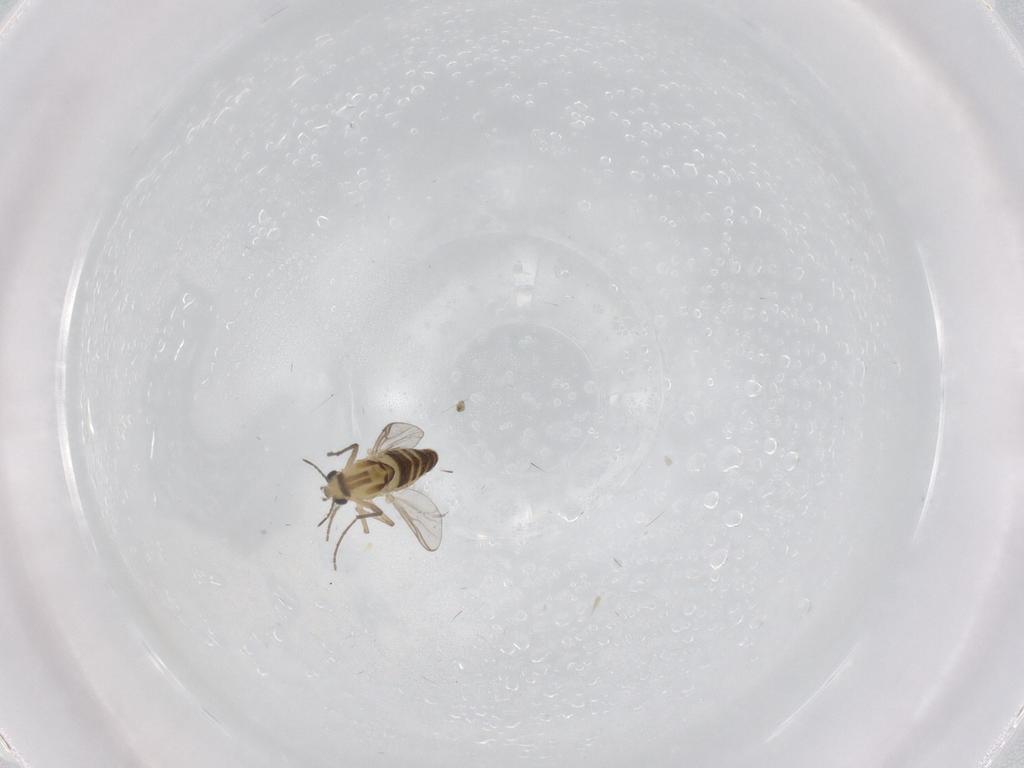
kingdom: Animalia
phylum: Arthropoda
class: Insecta
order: Diptera
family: Chironomidae
